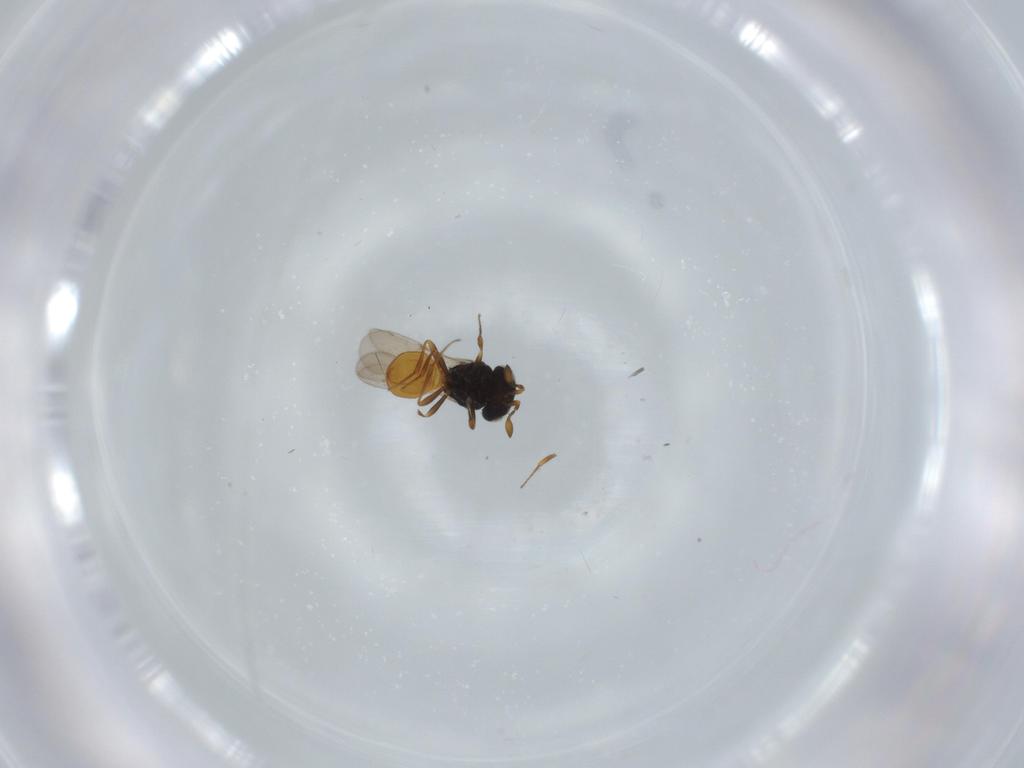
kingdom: Animalia
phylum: Arthropoda
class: Insecta
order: Hymenoptera
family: Scelionidae
